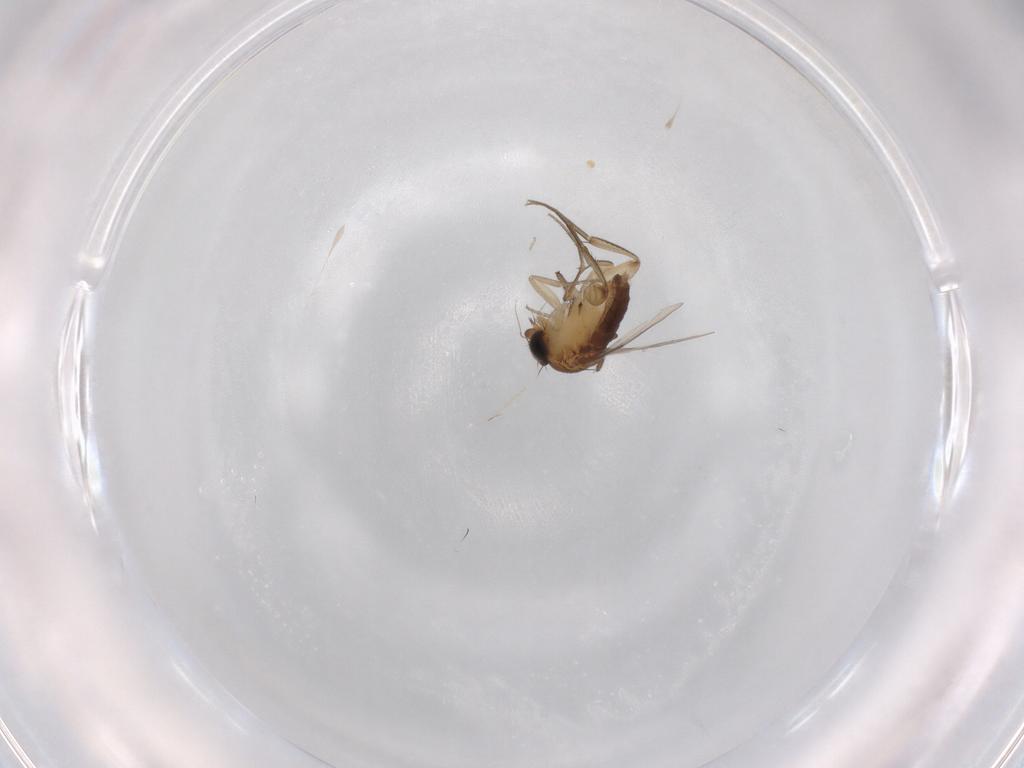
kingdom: Animalia
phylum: Arthropoda
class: Insecta
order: Diptera
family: Phoridae
